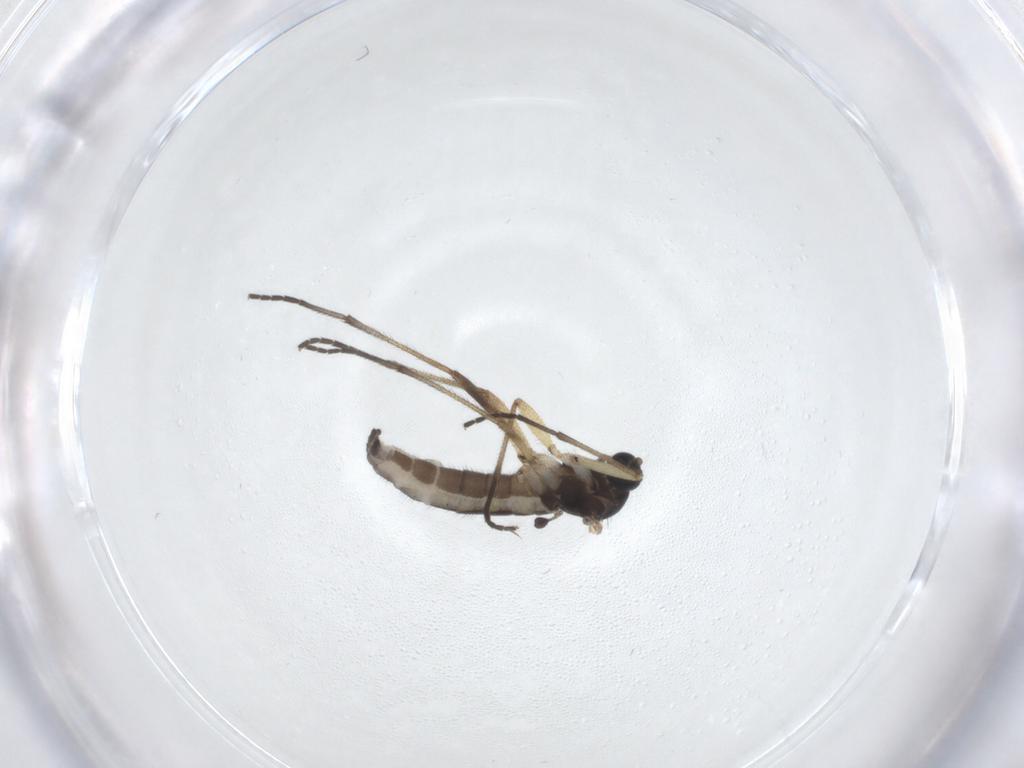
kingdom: Animalia
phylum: Arthropoda
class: Insecta
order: Diptera
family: Sciaridae
